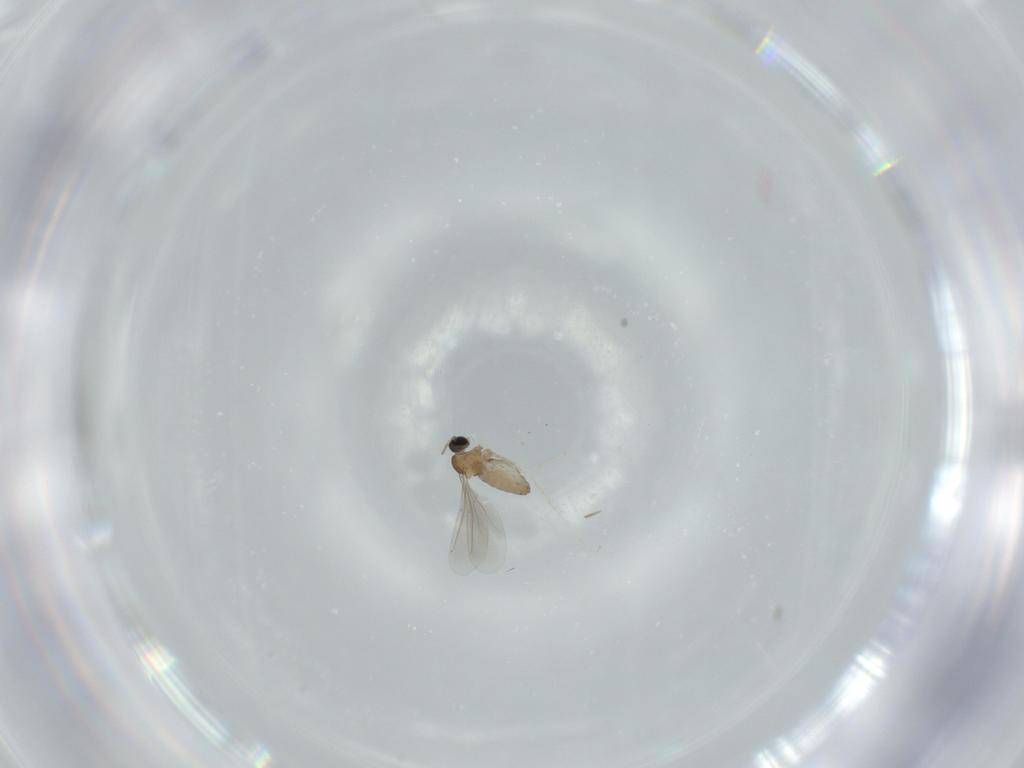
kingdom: Animalia
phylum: Arthropoda
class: Insecta
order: Diptera
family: Cecidomyiidae
